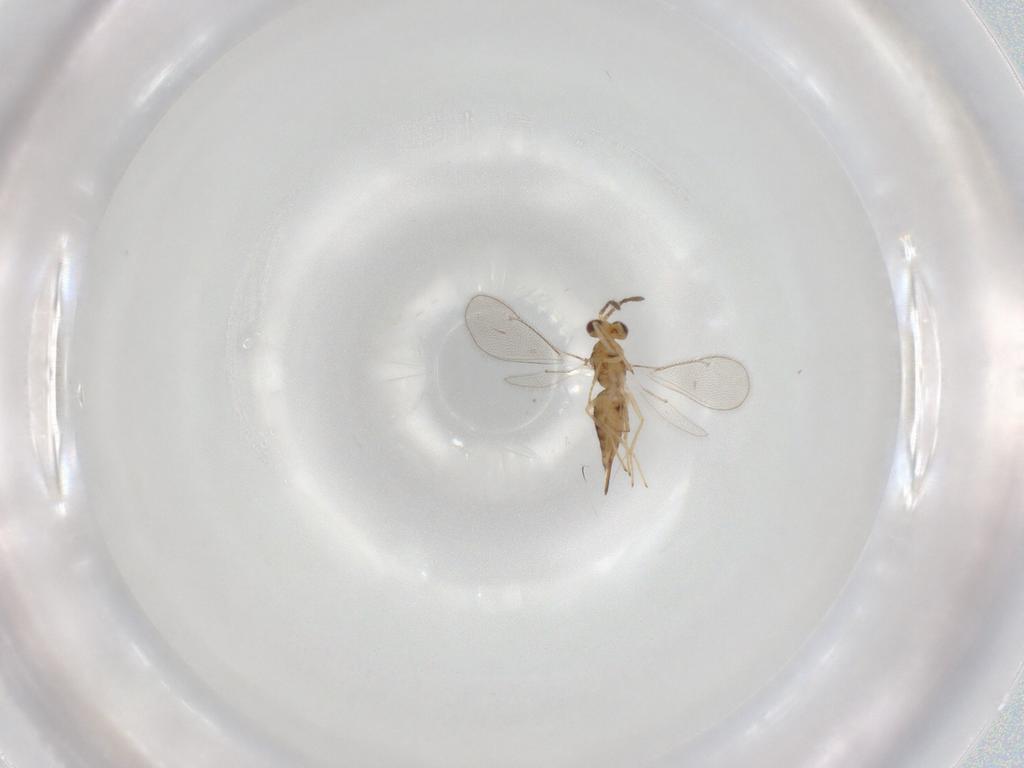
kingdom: Animalia
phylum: Arthropoda
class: Insecta
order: Hymenoptera
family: Eulophidae
